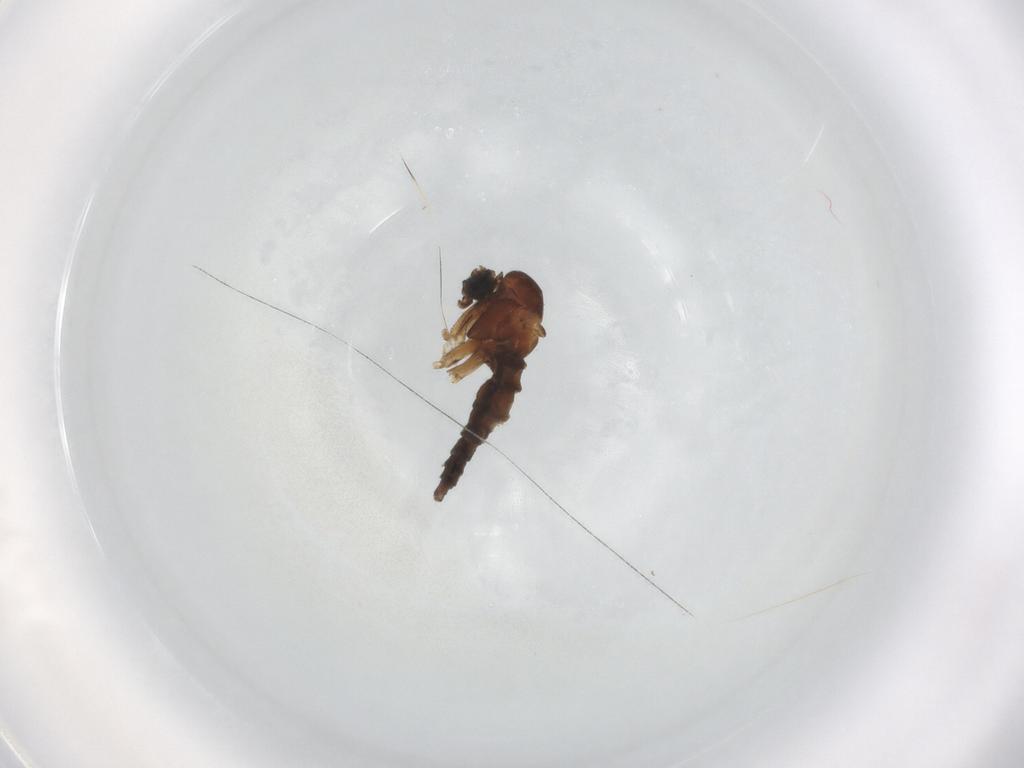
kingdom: Animalia
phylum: Arthropoda
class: Insecta
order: Diptera
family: Sciaridae
